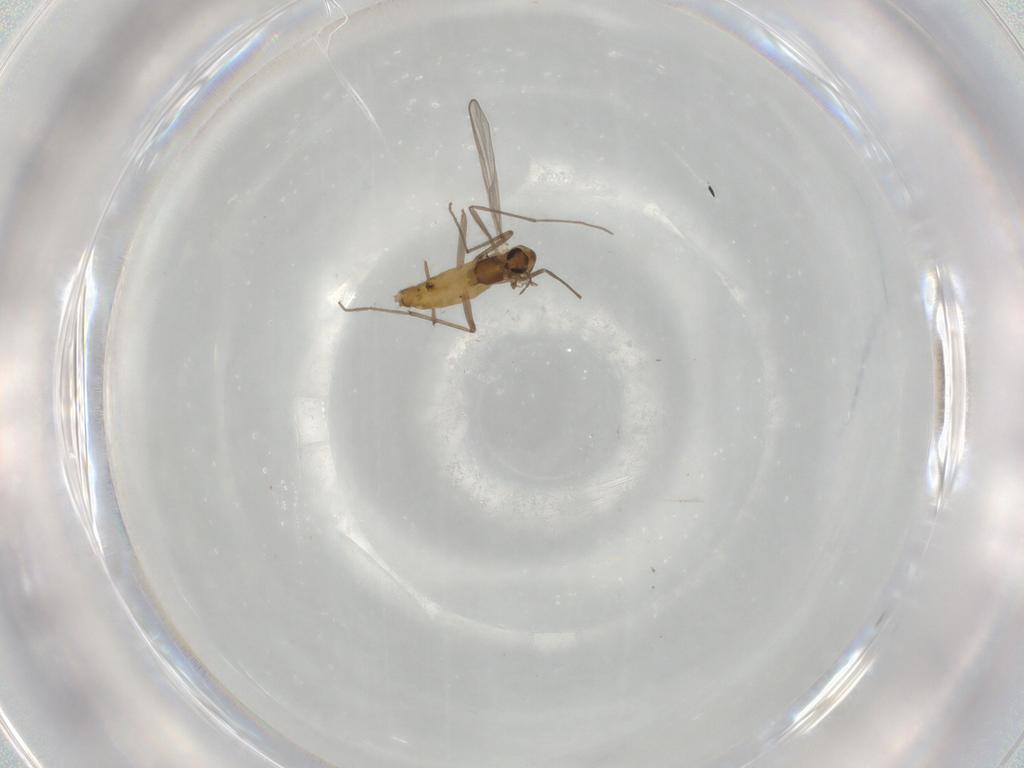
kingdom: Animalia
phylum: Arthropoda
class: Insecta
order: Diptera
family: Chironomidae
